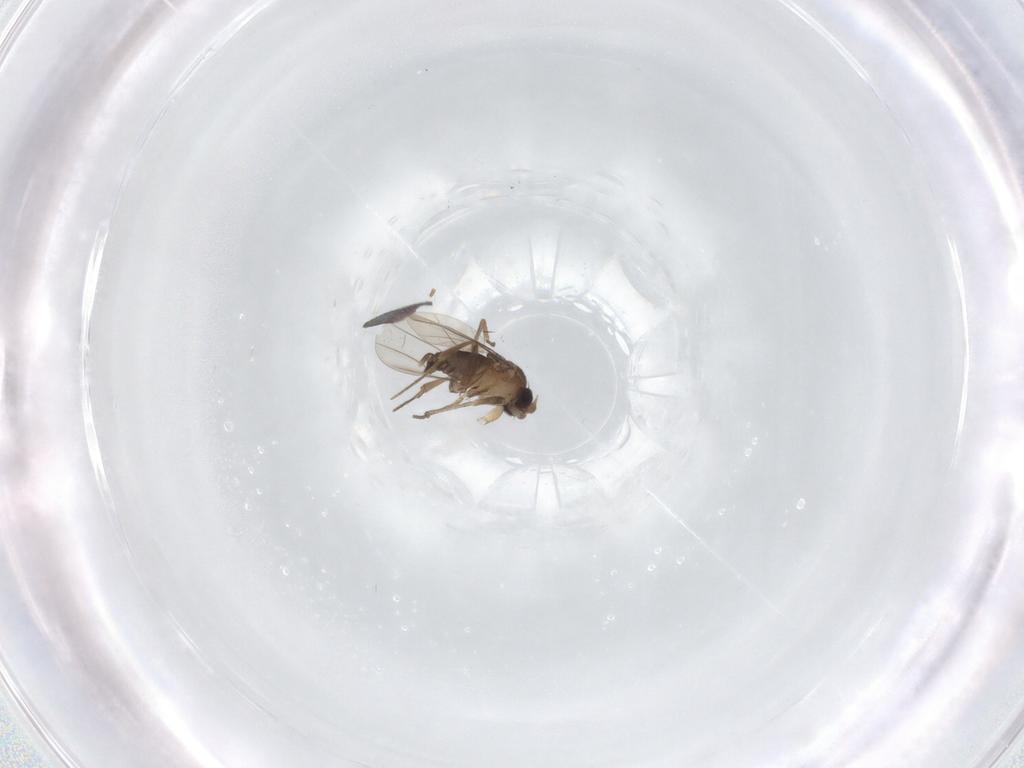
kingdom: Animalia
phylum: Arthropoda
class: Insecta
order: Diptera
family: Phoridae
